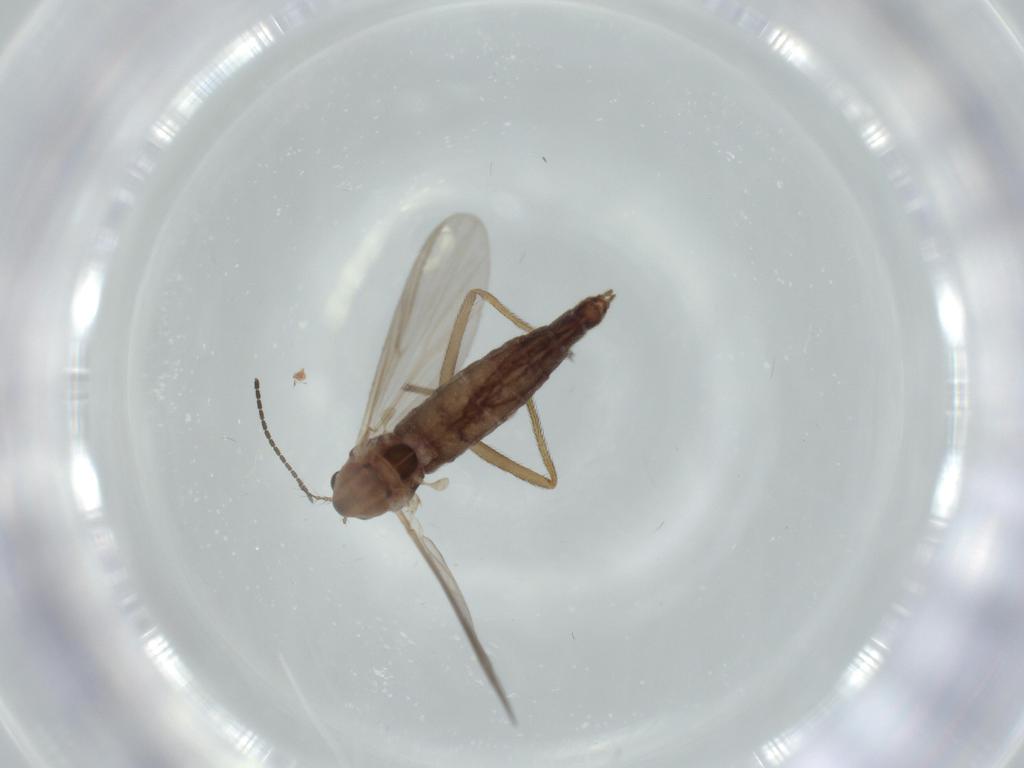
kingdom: Animalia
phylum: Arthropoda
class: Insecta
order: Diptera
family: Chironomidae
